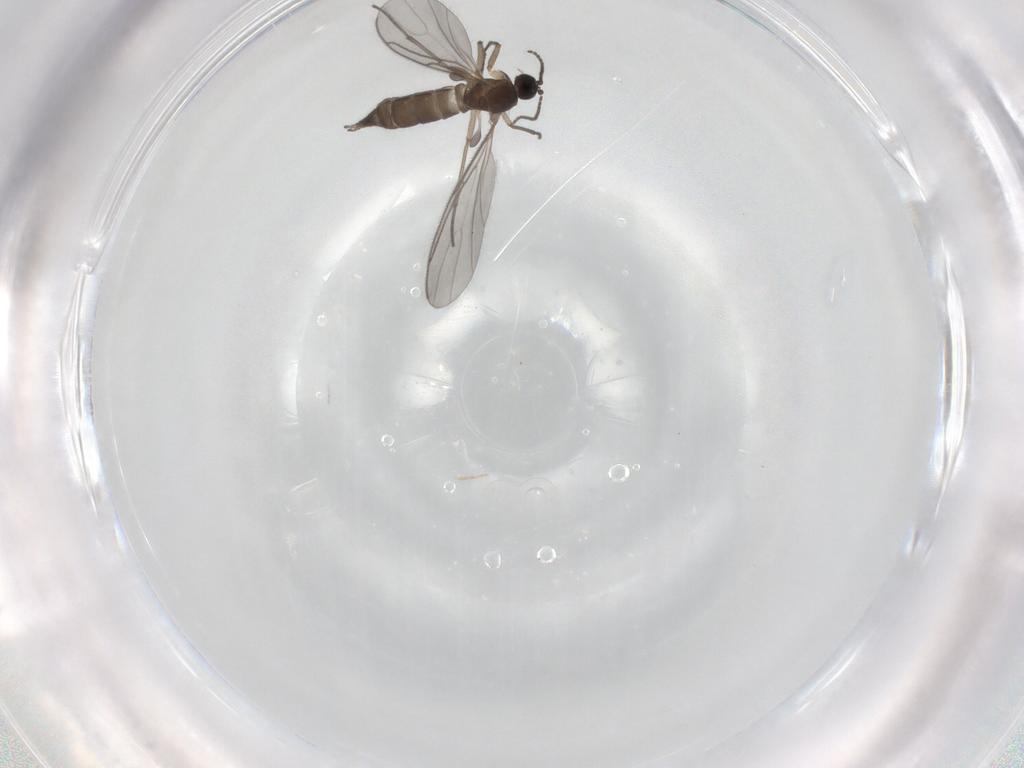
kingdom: Animalia
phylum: Arthropoda
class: Insecta
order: Diptera
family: Sciaridae
